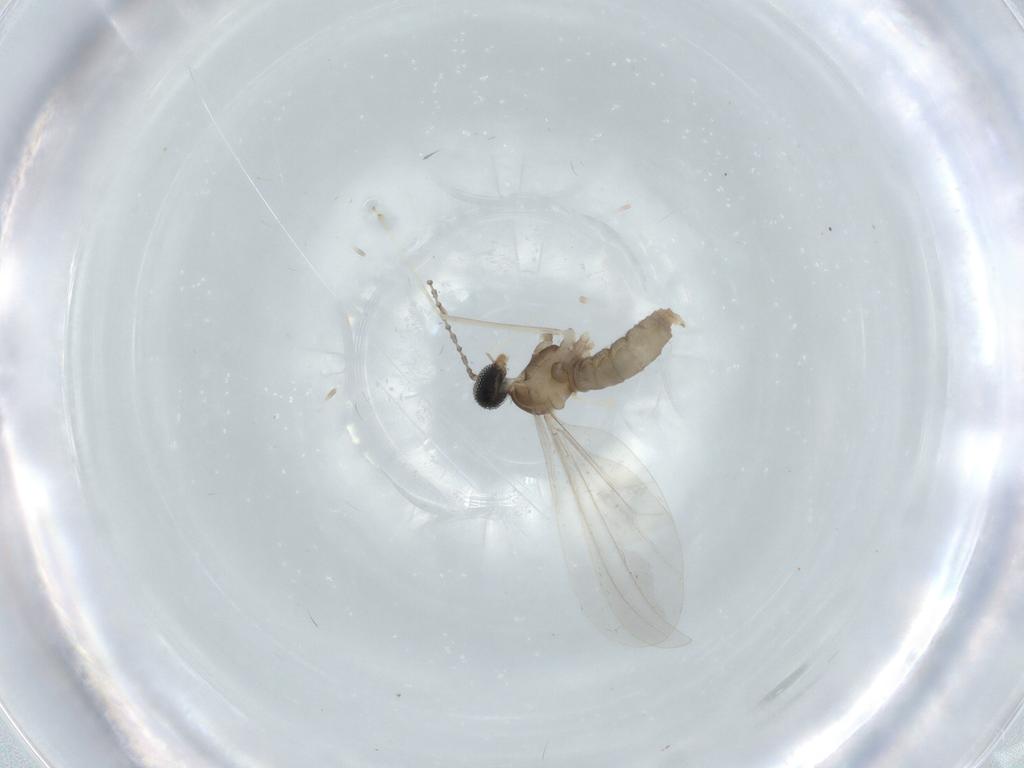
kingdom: Animalia
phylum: Arthropoda
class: Insecta
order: Diptera
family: Cecidomyiidae
